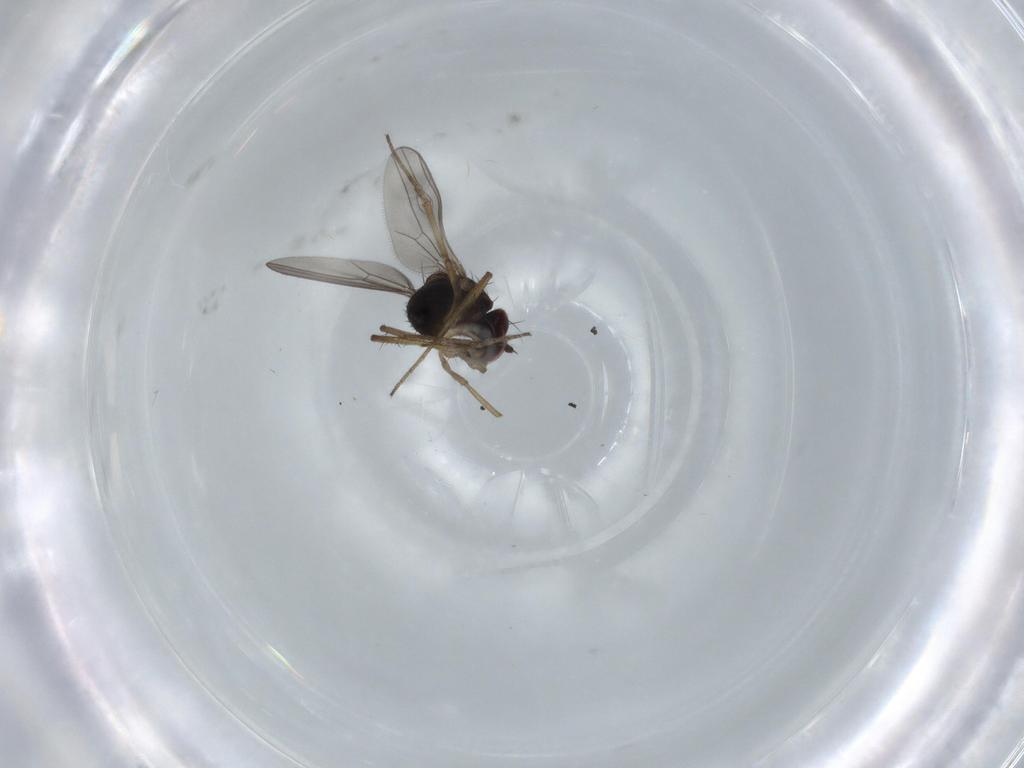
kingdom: Animalia
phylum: Arthropoda
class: Insecta
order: Diptera
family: Dolichopodidae
